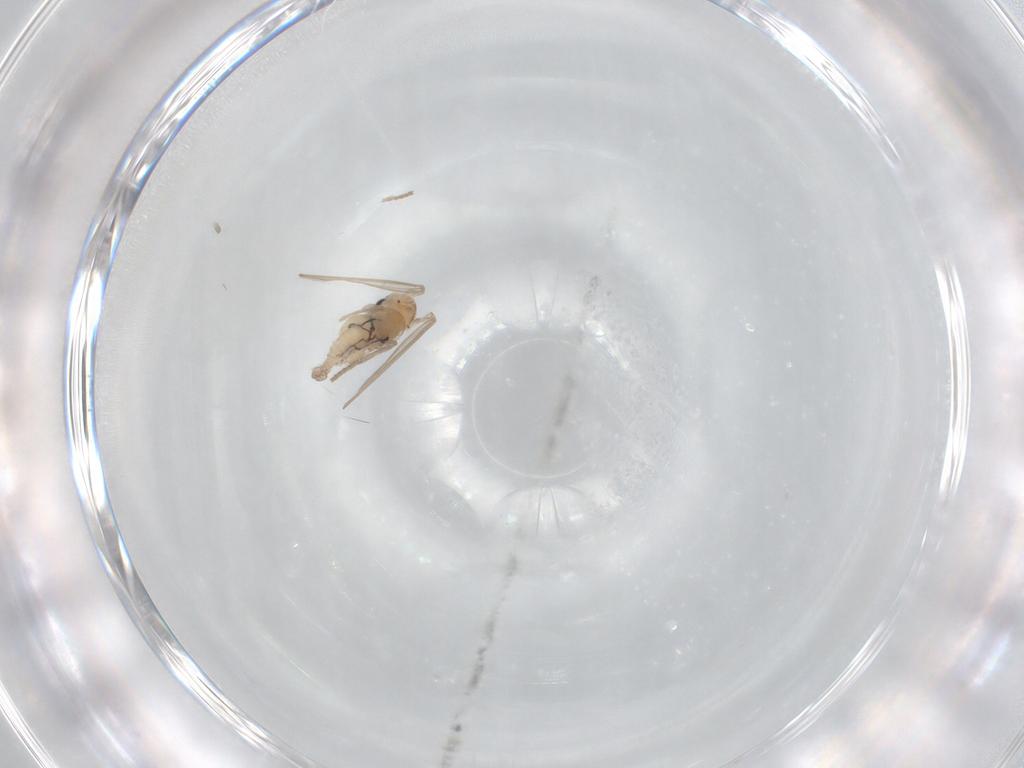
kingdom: Animalia
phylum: Arthropoda
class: Insecta
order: Diptera
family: Psychodidae
